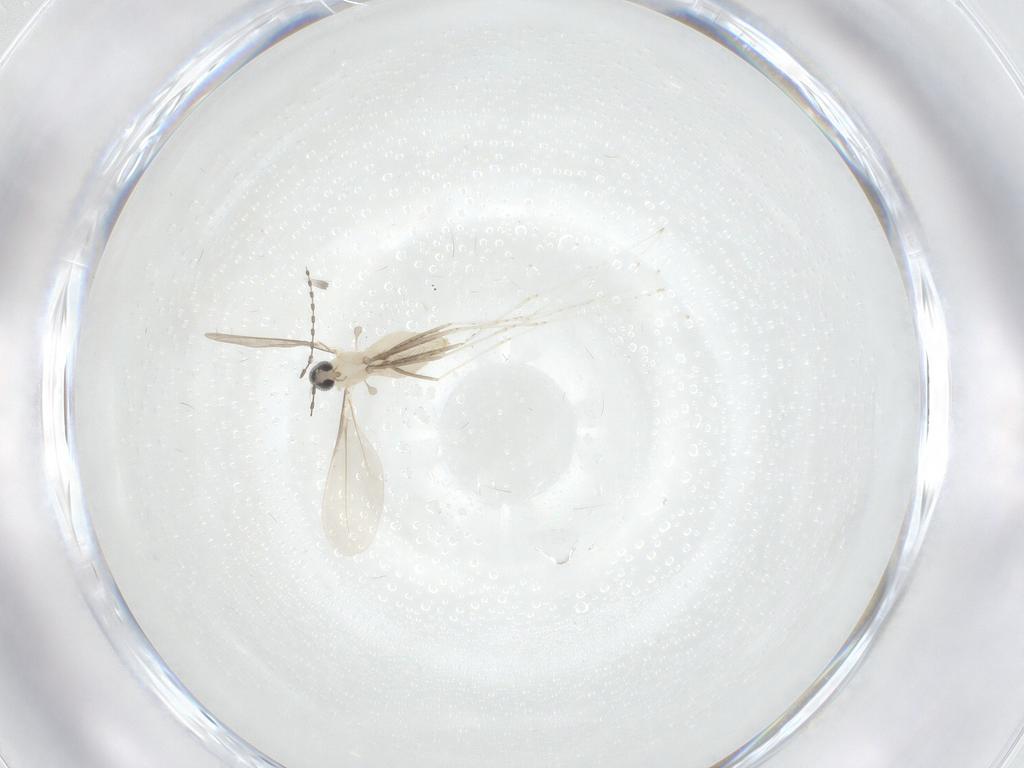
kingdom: Animalia
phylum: Arthropoda
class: Insecta
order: Diptera
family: Cecidomyiidae
